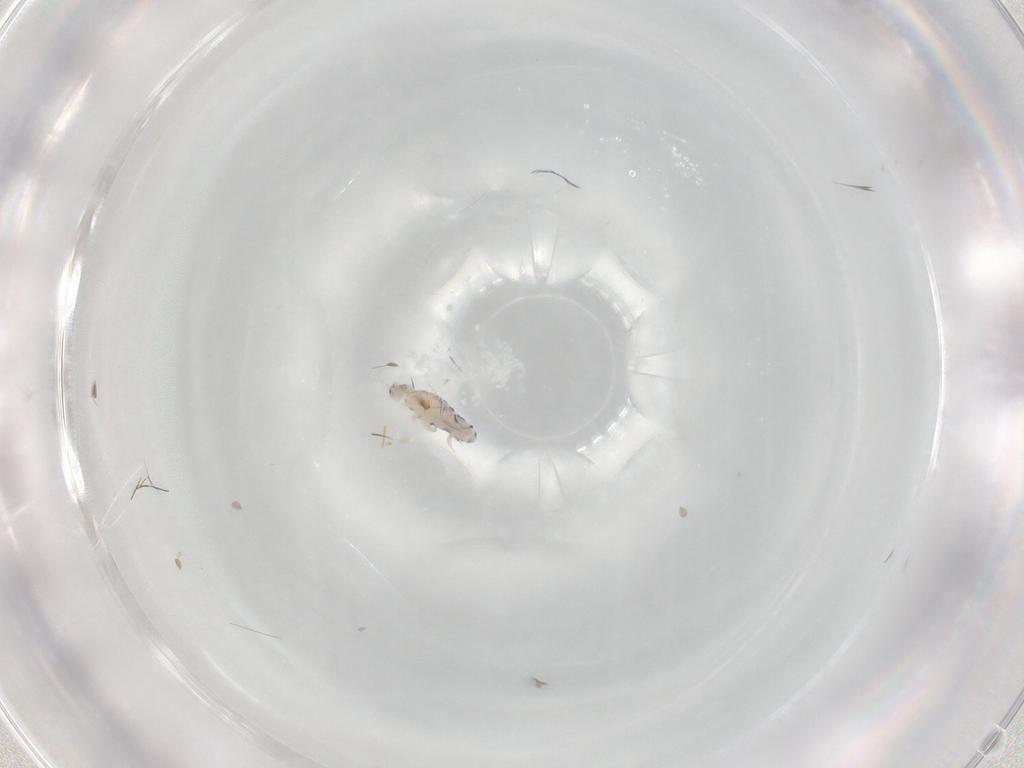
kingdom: Animalia
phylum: Arthropoda
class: Collembola
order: Entomobryomorpha
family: Entomobryidae
